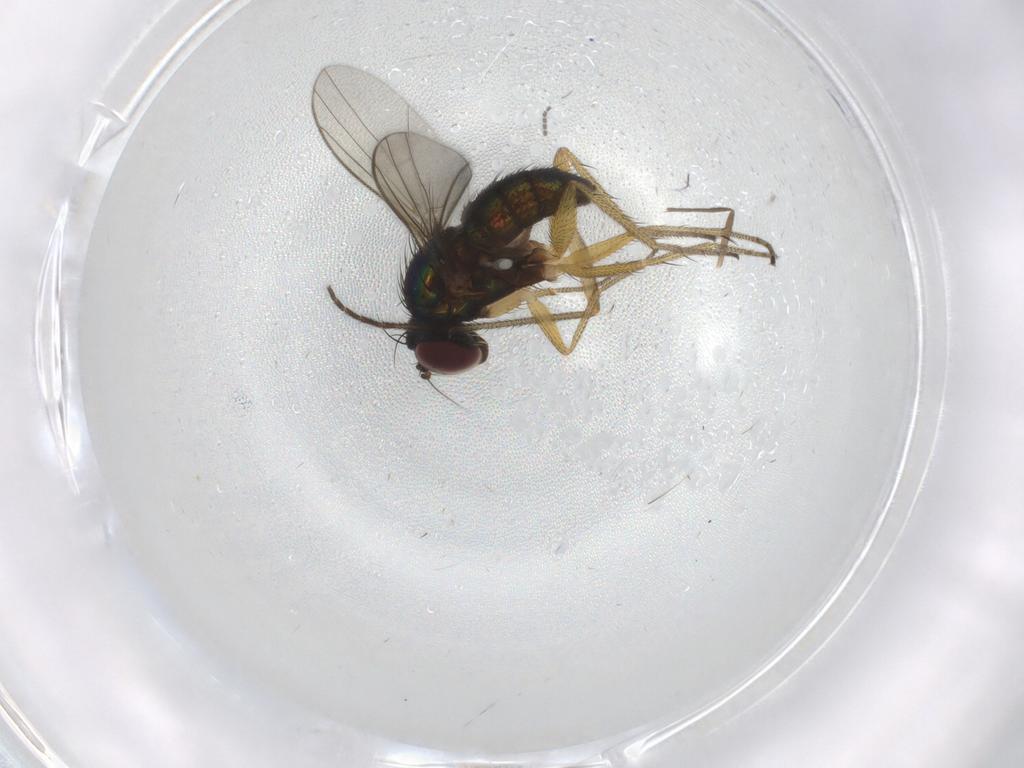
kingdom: Animalia
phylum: Arthropoda
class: Insecta
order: Diptera
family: Sciaridae
